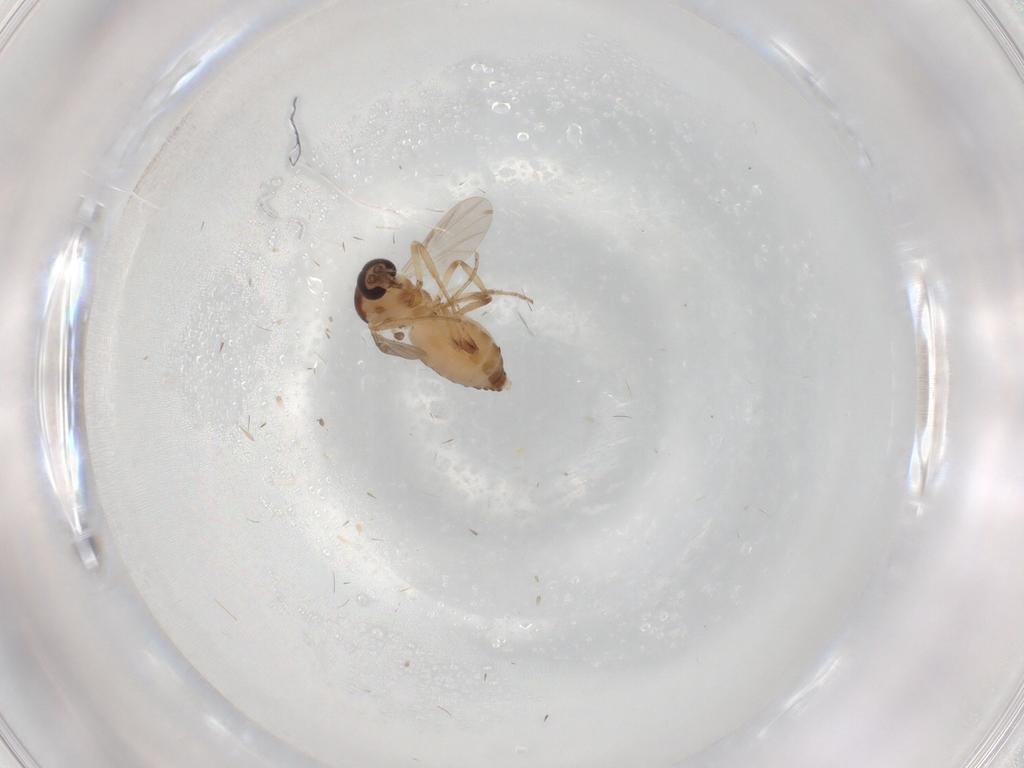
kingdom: Animalia
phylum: Arthropoda
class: Insecta
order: Diptera
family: Ceratopogonidae
